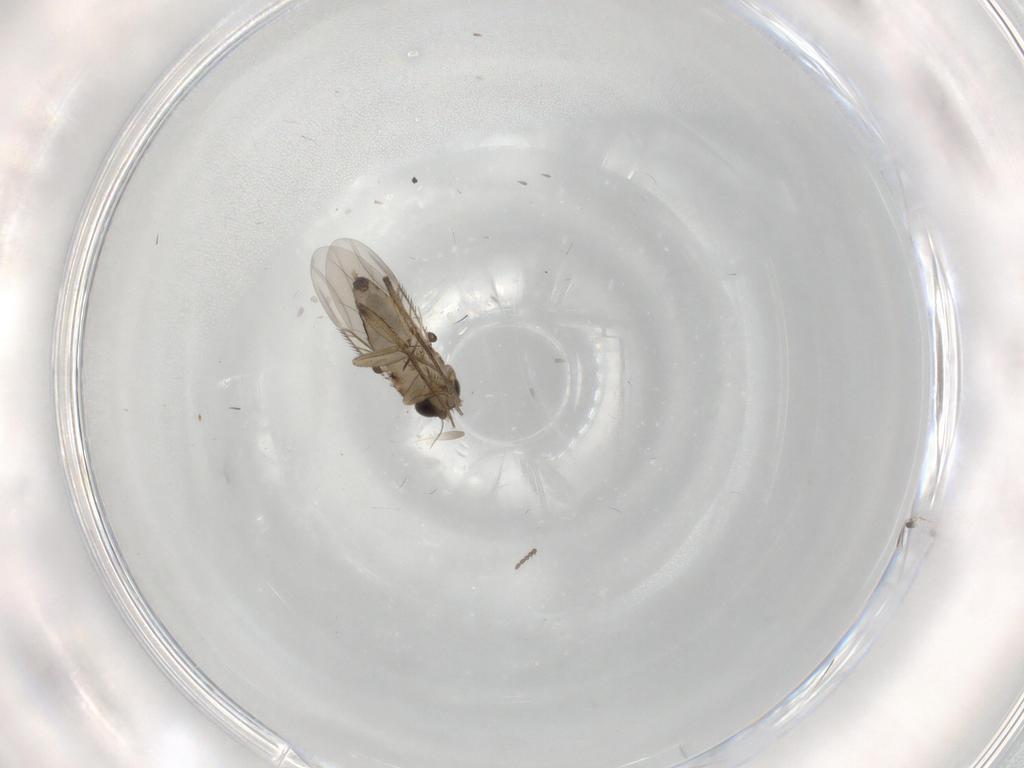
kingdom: Animalia
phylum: Arthropoda
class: Insecta
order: Diptera
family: Phoridae
